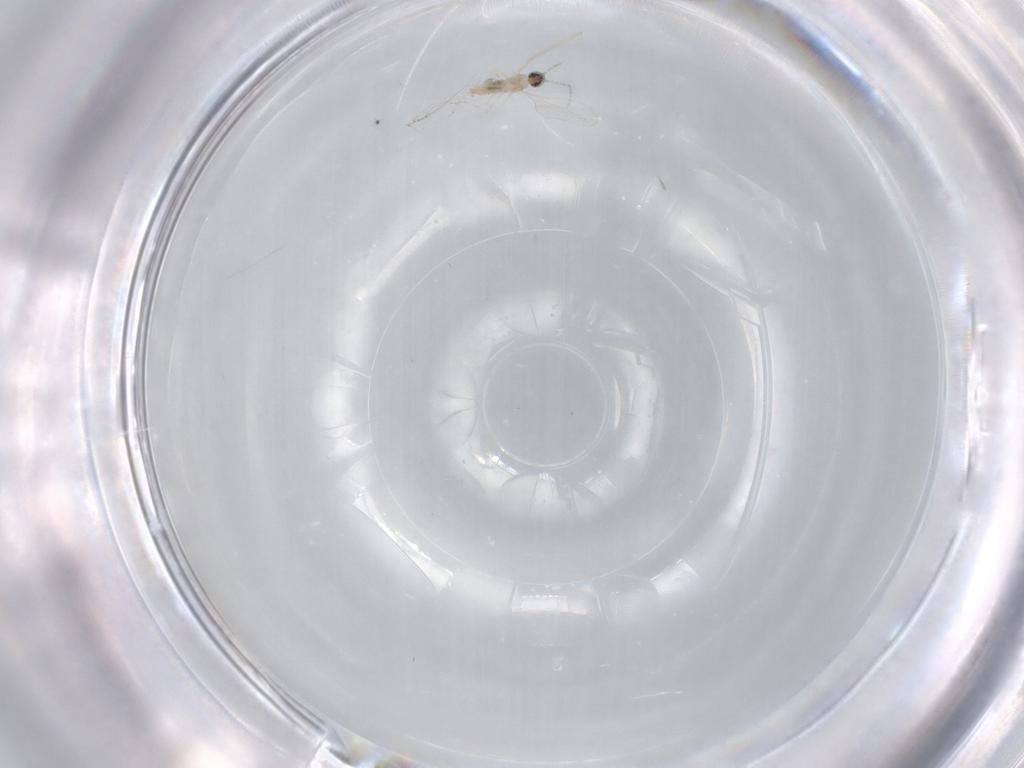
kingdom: Animalia
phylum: Arthropoda
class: Insecta
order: Diptera
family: Cecidomyiidae
